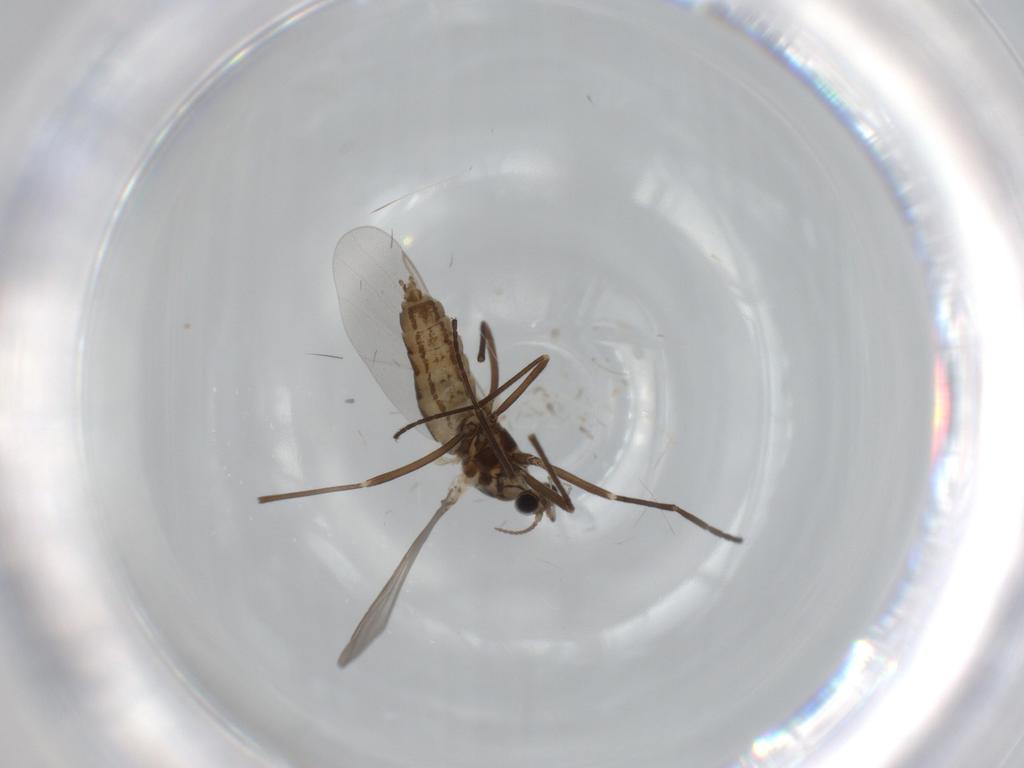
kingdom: Animalia
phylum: Arthropoda
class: Insecta
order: Diptera
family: Cecidomyiidae
